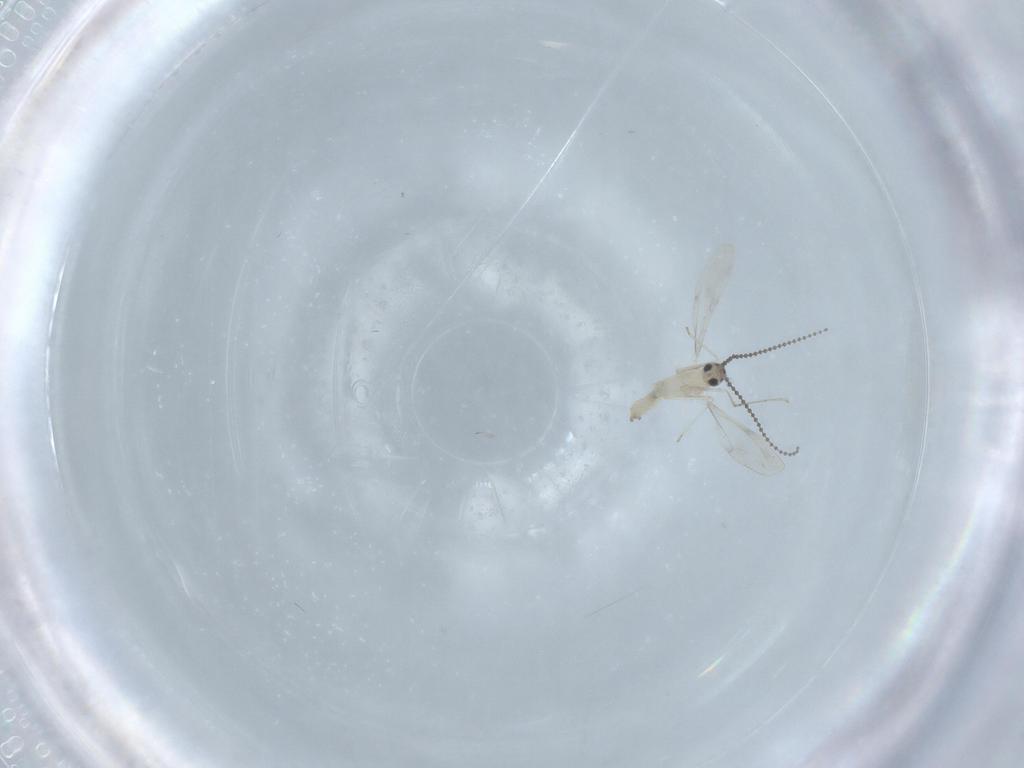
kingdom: Animalia
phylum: Arthropoda
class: Insecta
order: Diptera
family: Cecidomyiidae
